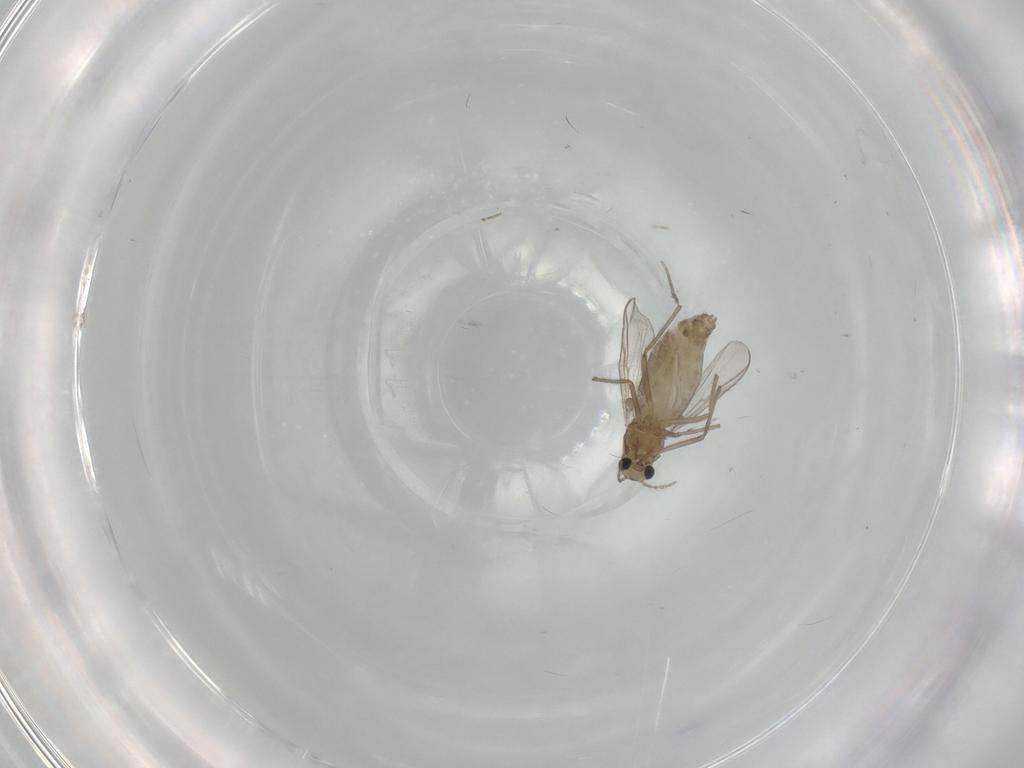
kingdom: Animalia
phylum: Arthropoda
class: Insecta
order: Diptera
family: Chironomidae
